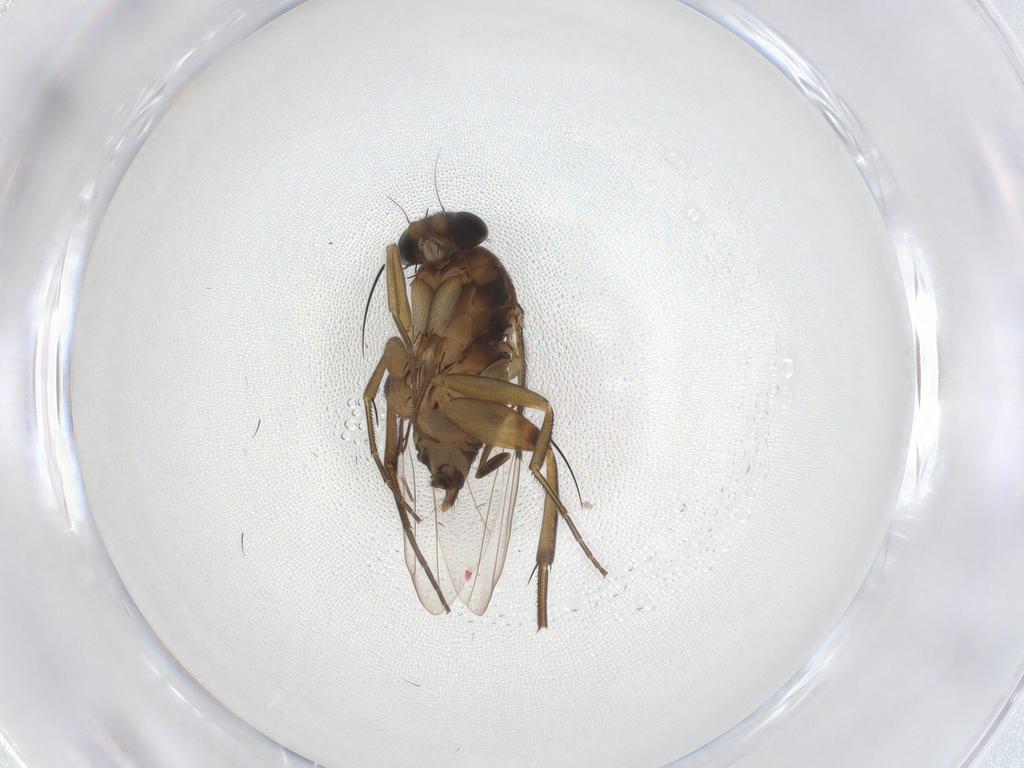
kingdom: Animalia
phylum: Arthropoda
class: Insecta
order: Diptera
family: Phoridae
